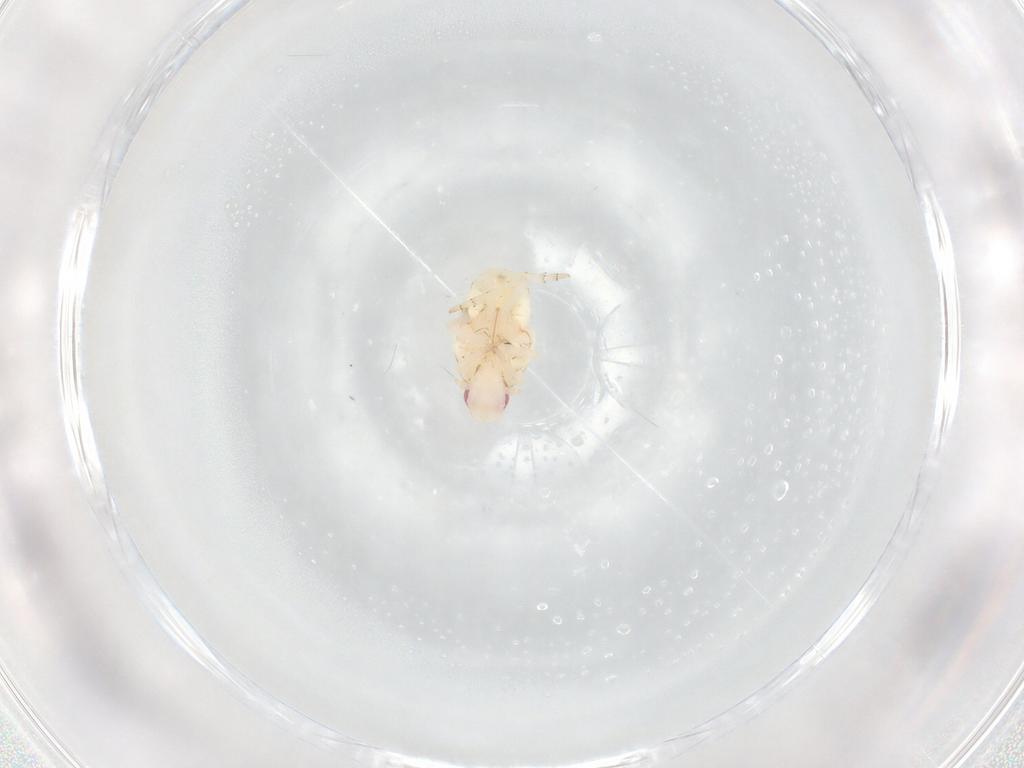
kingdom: Animalia
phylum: Arthropoda
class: Insecta
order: Hemiptera
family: Flatidae
